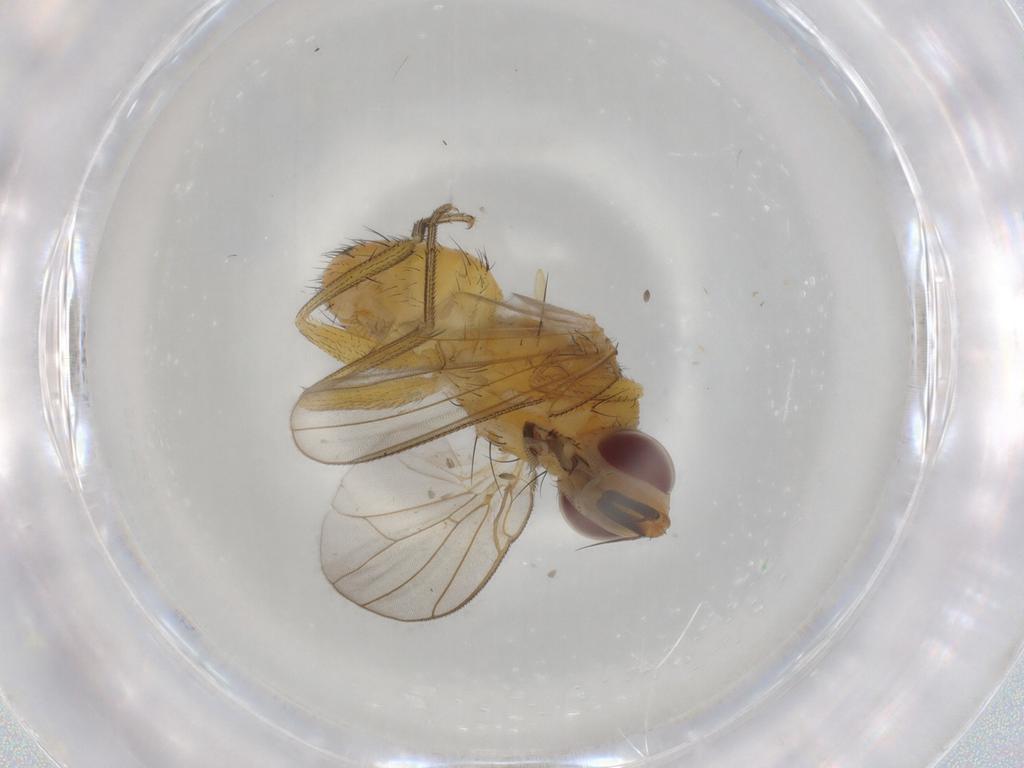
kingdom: Animalia
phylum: Arthropoda
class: Insecta
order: Diptera
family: Muscidae
